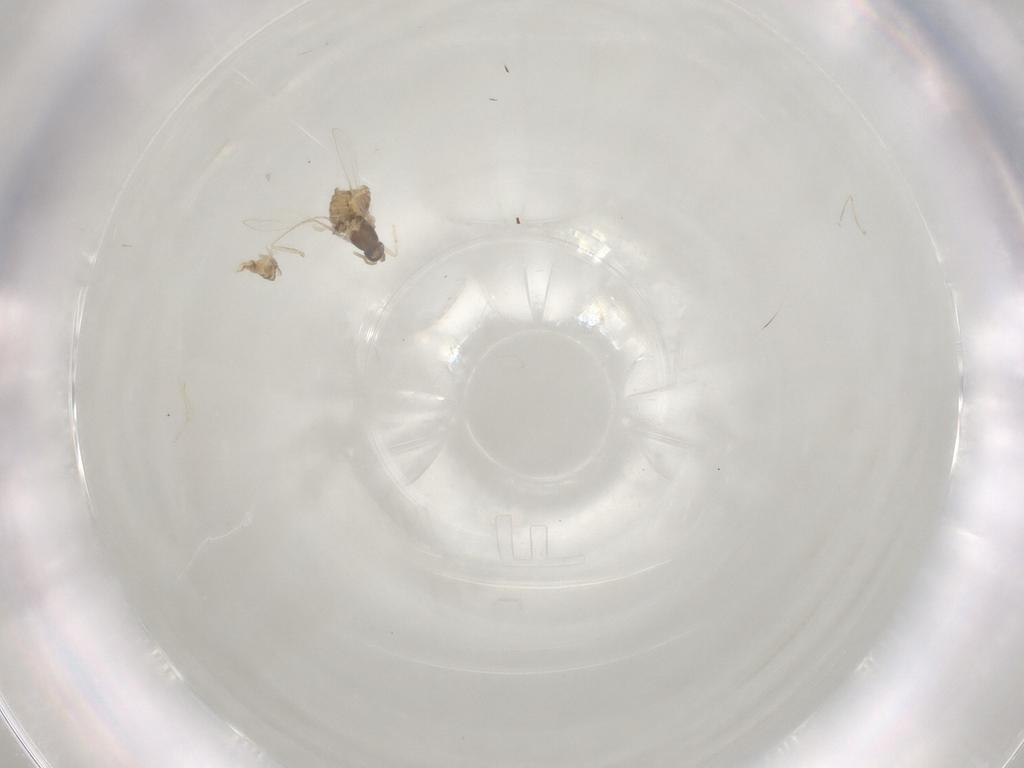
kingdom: Animalia
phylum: Arthropoda
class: Insecta
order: Diptera
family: Cecidomyiidae
